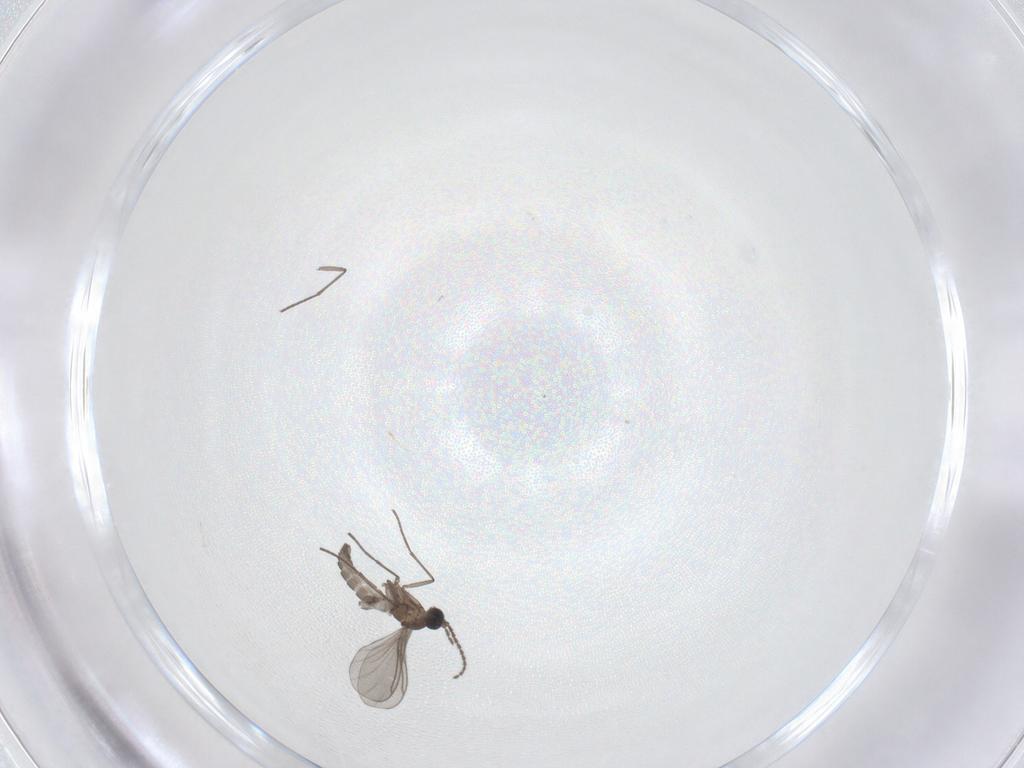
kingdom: Animalia
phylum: Arthropoda
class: Insecta
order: Diptera
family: Sciaridae
